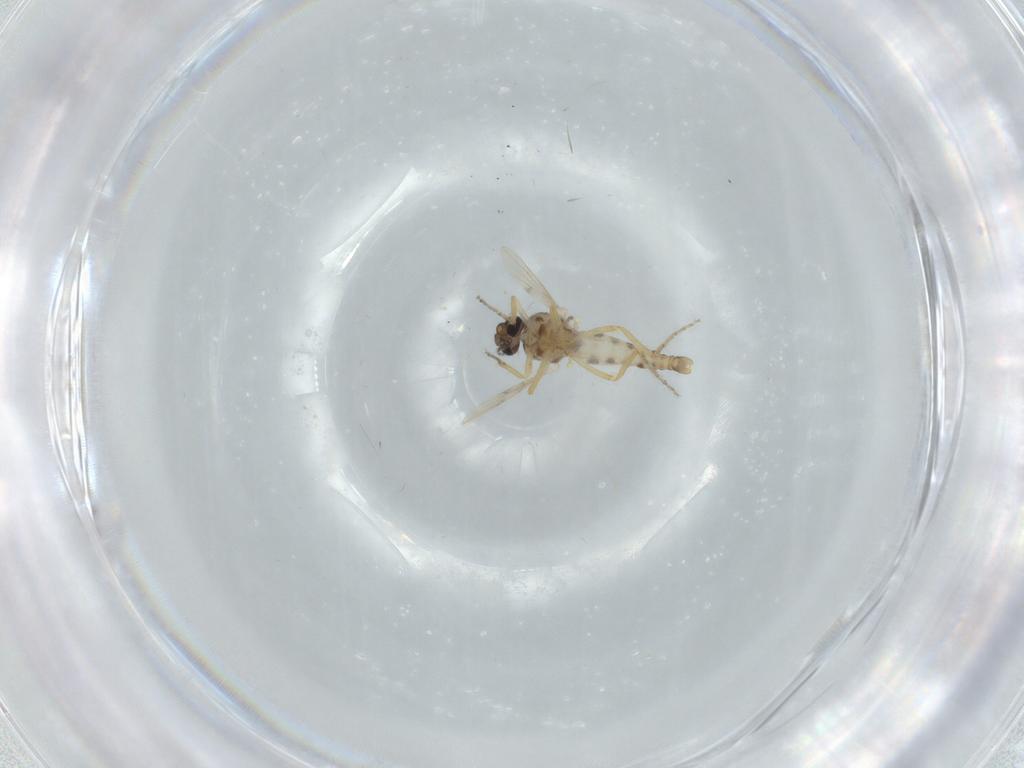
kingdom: Animalia
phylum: Arthropoda
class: Insecta
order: Diptera
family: Ceratopogonidae
